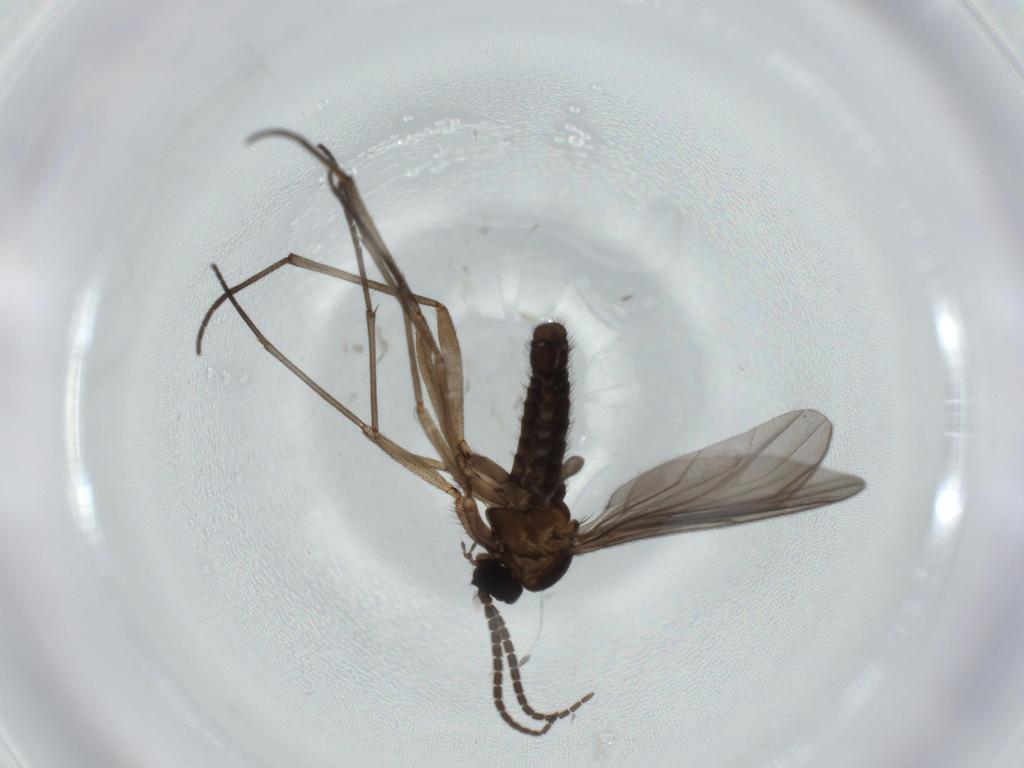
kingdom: Animalia
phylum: Arthropoda
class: Insecta
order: Diptera
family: Sciaridae
